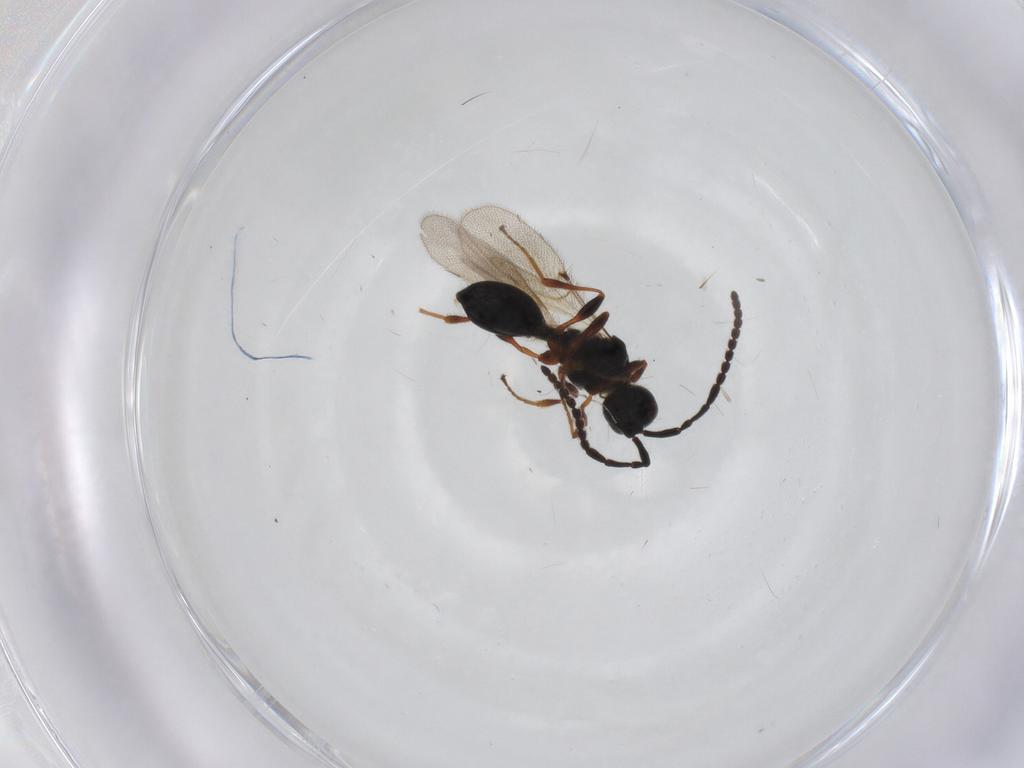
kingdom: Animalia
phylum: Arthropoda
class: Insecta
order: Hymenoptera
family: Diapriidae
